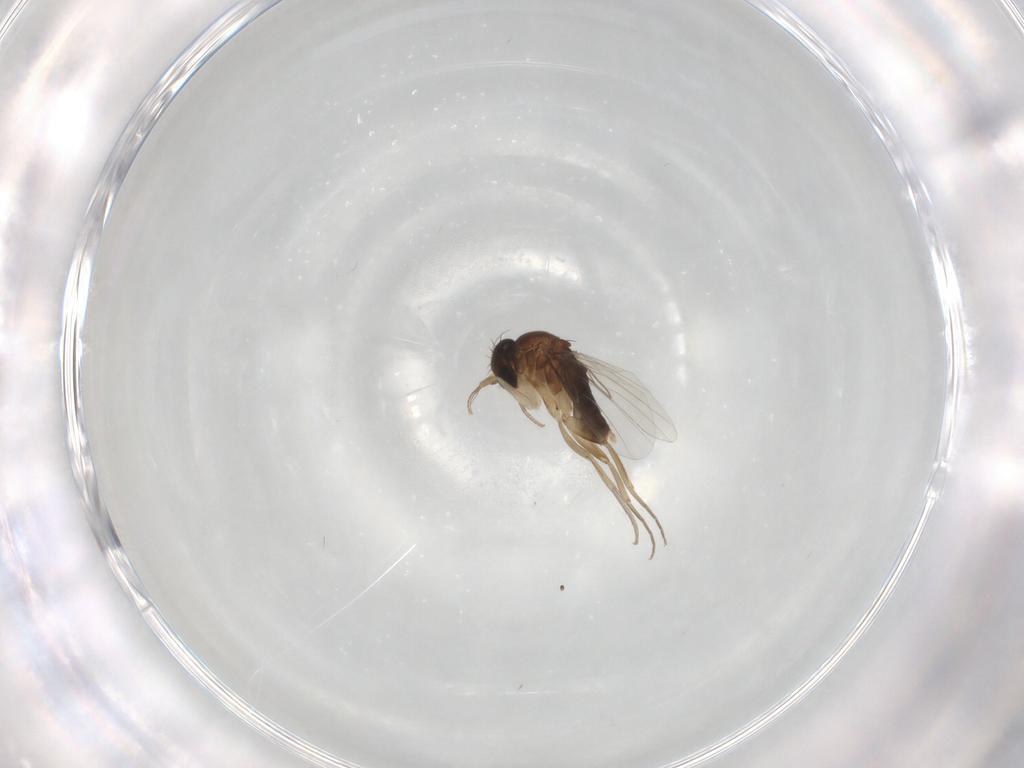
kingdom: Animalia
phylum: Arthropoda
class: Insecta
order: Diptera
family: Phoridae
